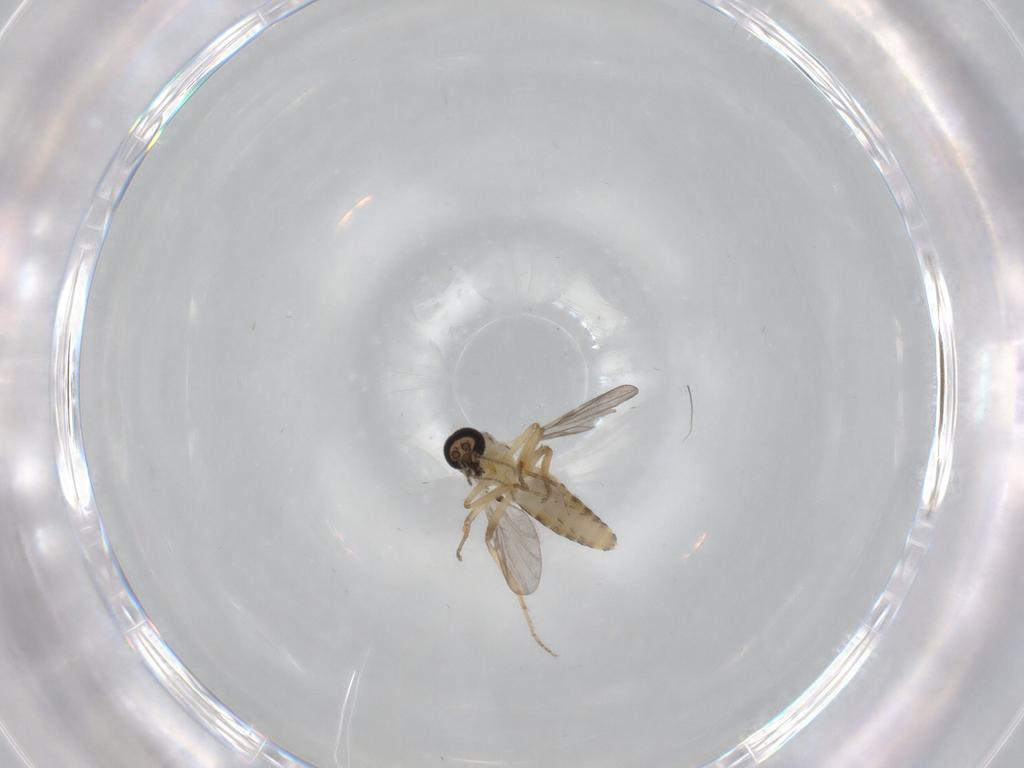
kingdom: Animalia
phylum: Arthropoda
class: Insecta
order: Diptera
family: Ceratopogonidae
